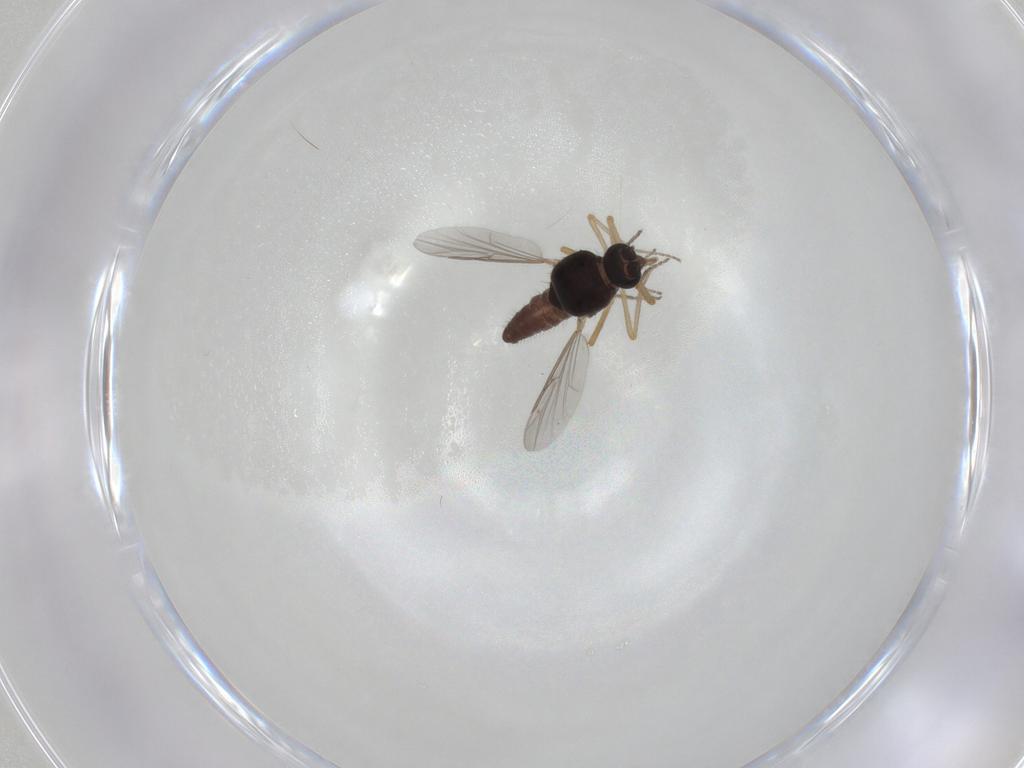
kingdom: Animalia
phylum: Arthropoda
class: Insecta
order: Diptera
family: Ceratopogonidae
